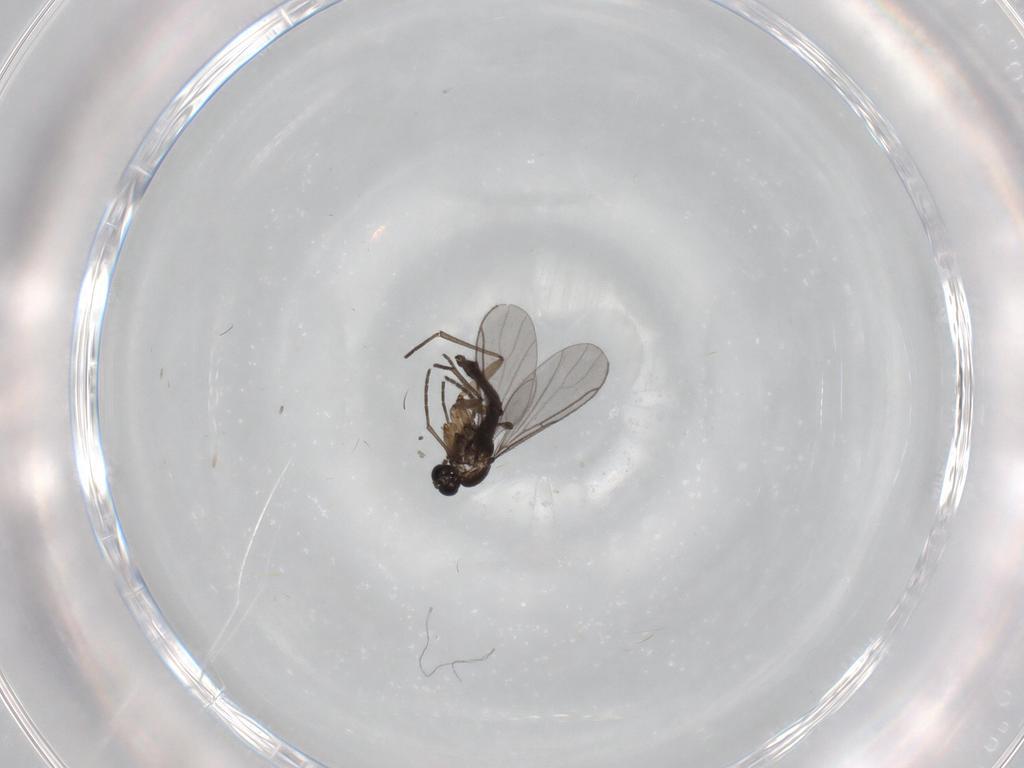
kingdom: Animalia
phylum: Arthropoda
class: Insecta
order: Diptera
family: Sciaridae
